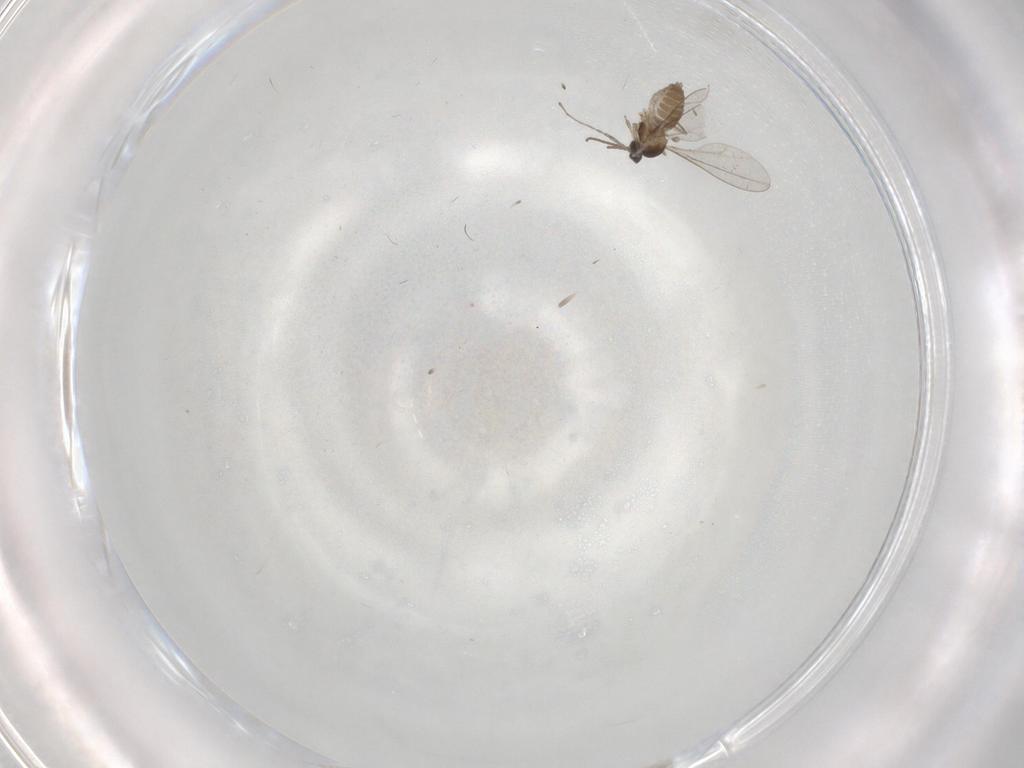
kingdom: Animalia
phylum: Arthropoda
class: Insecta
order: Diptera
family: Cecidomyiidae
